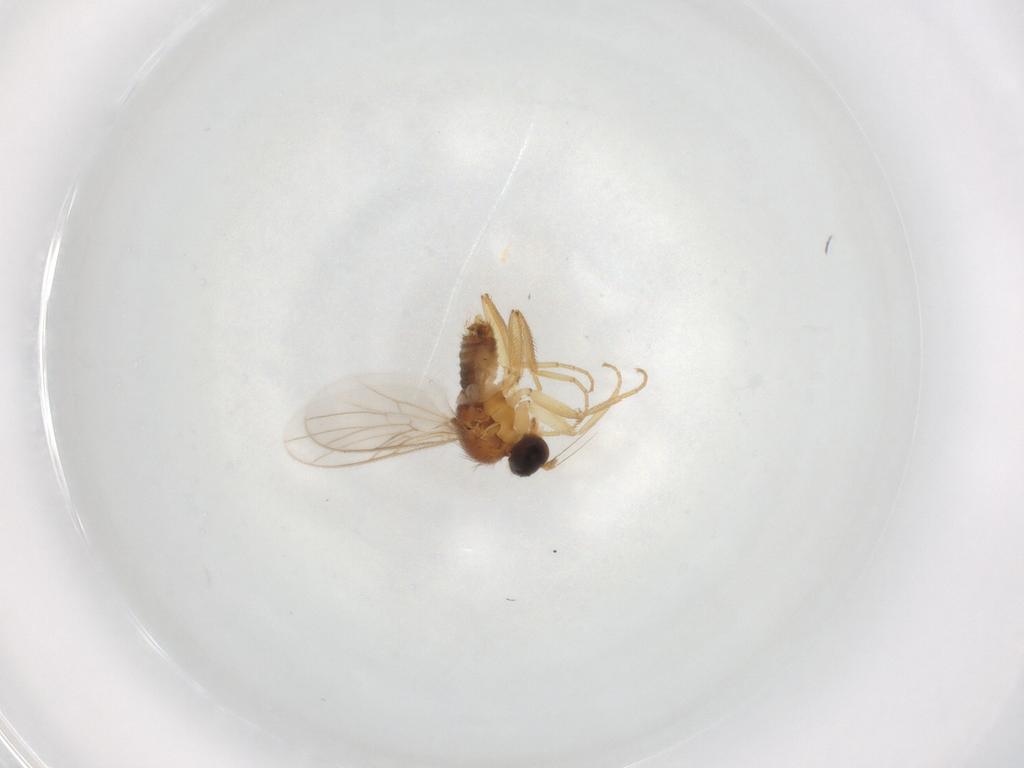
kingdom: Animalia
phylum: Arthropoda
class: Insecta
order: Diptera
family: Hybotidae
